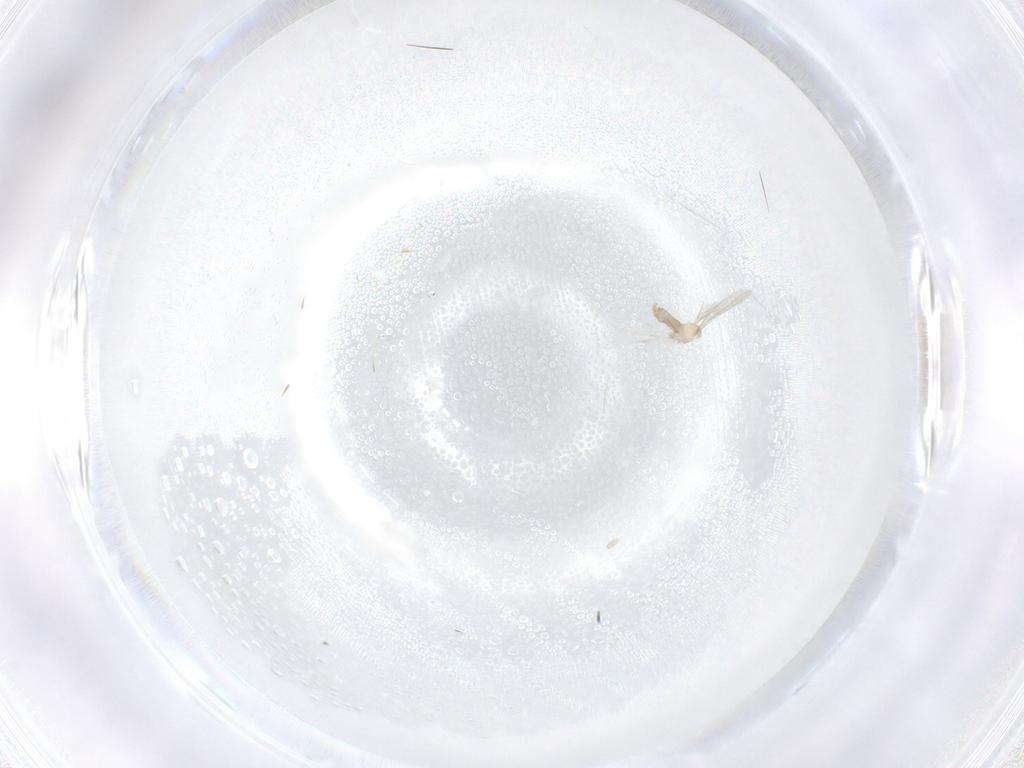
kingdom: Animalia
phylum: Arthropoda
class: Insecta
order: Diptera
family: Cecidomyiidae
